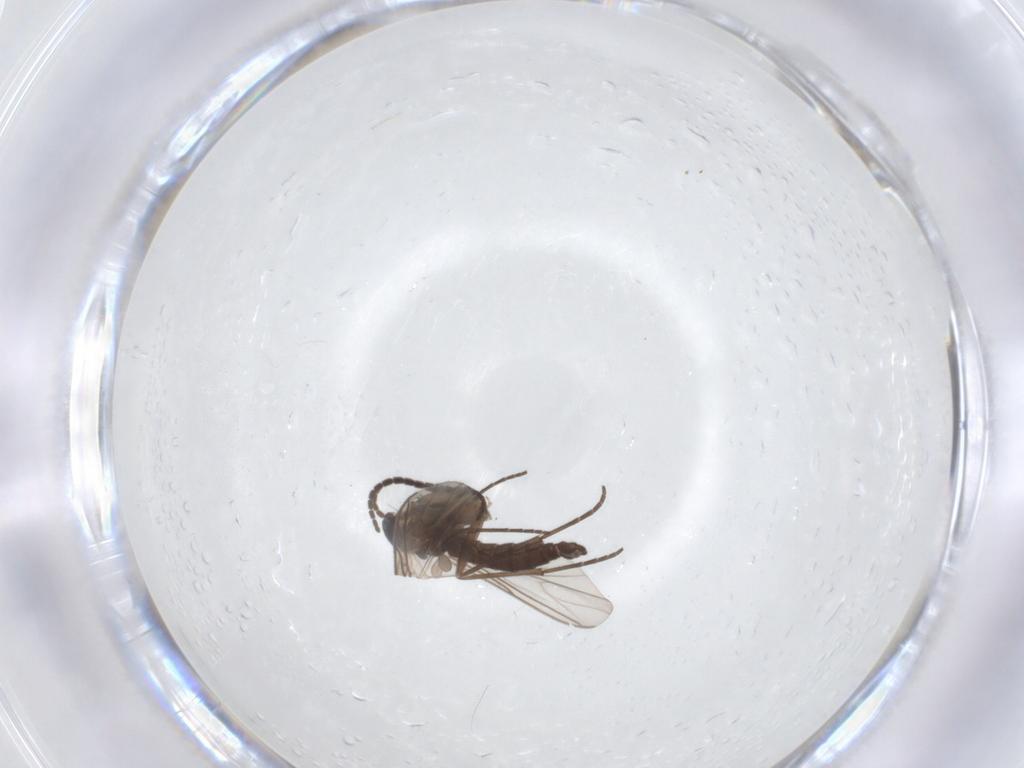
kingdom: Animalia
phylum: Arthropoda
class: Insecta
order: Diptera
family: Sciaridae
